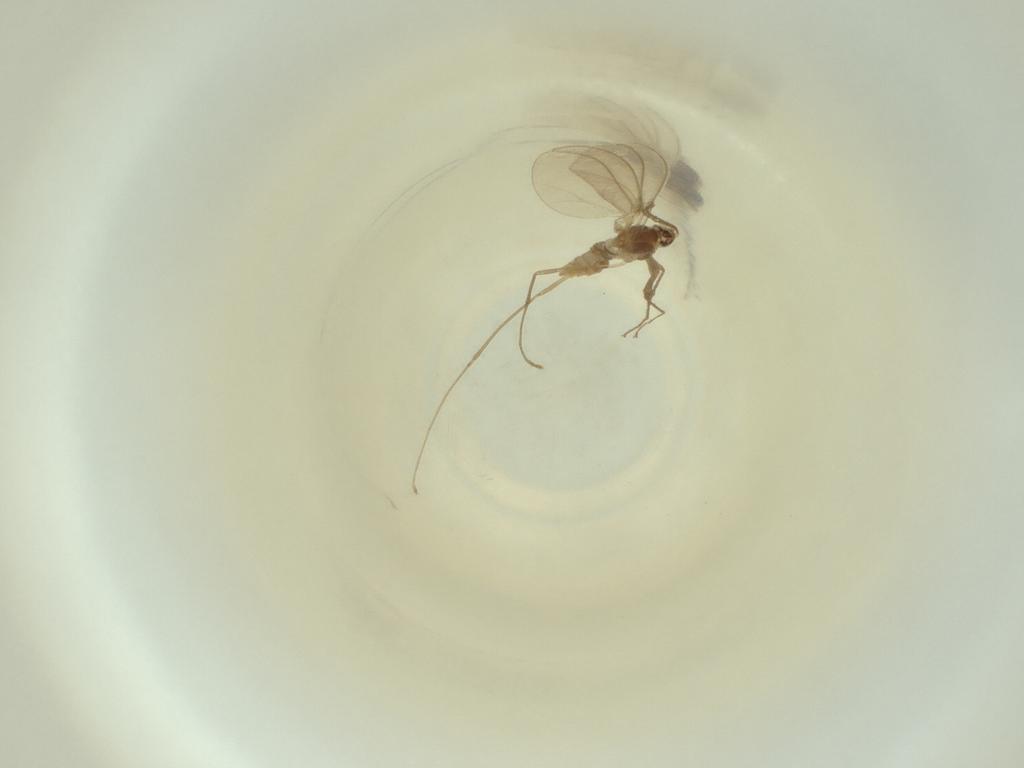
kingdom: Animalia
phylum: Arthropoda
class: Insecta
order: Diptera
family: Cecidomyiidae
